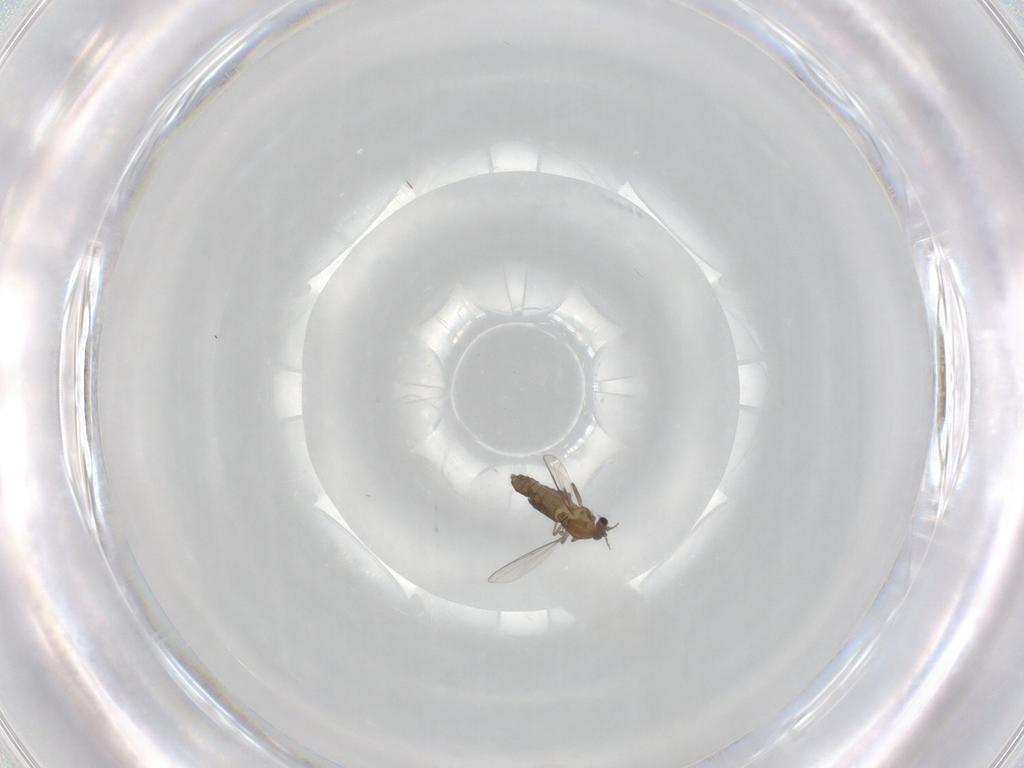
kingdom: Animalia
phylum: Arthropoda
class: Insecta
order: Diptera
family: Chironomidae
